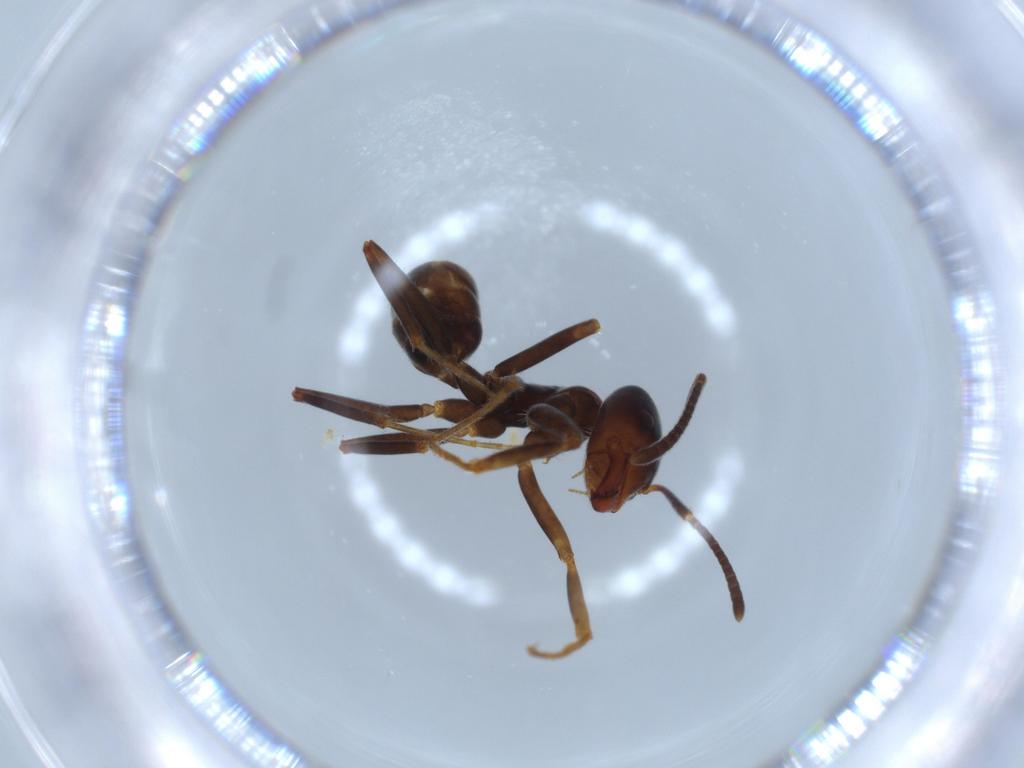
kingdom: Animalia
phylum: Arthropoda
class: Insecta
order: Hymenoptera
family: Formicidae
